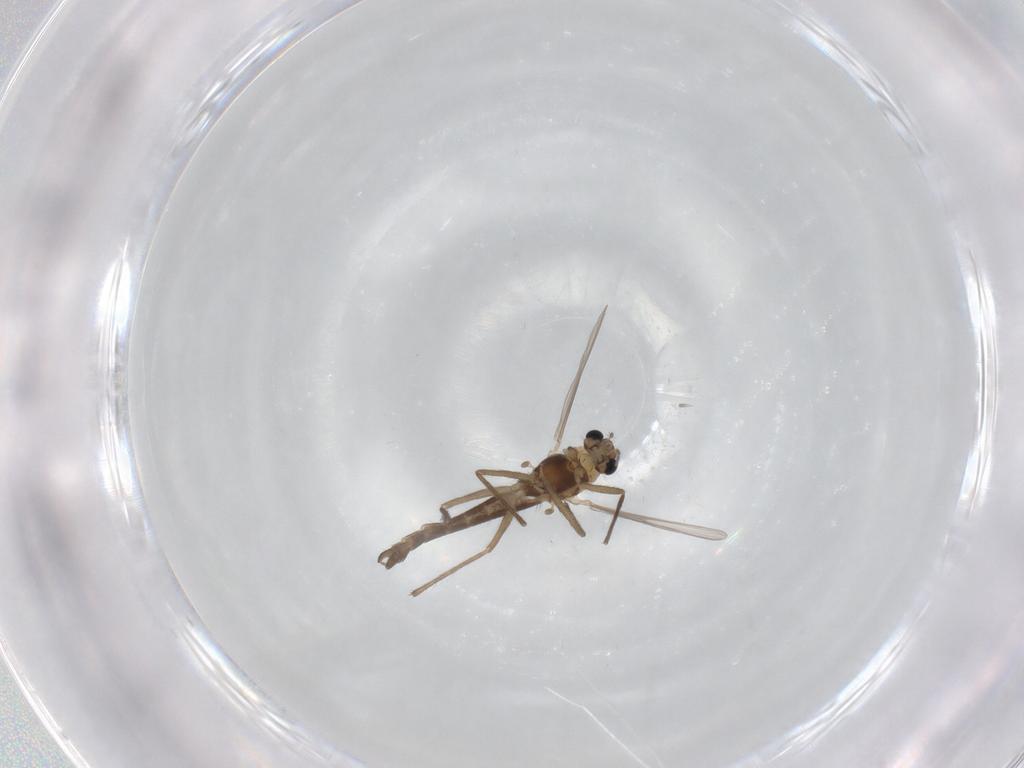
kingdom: Animalia
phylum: Arthropoda
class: Insecta
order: Diptera
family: Chironomidae
